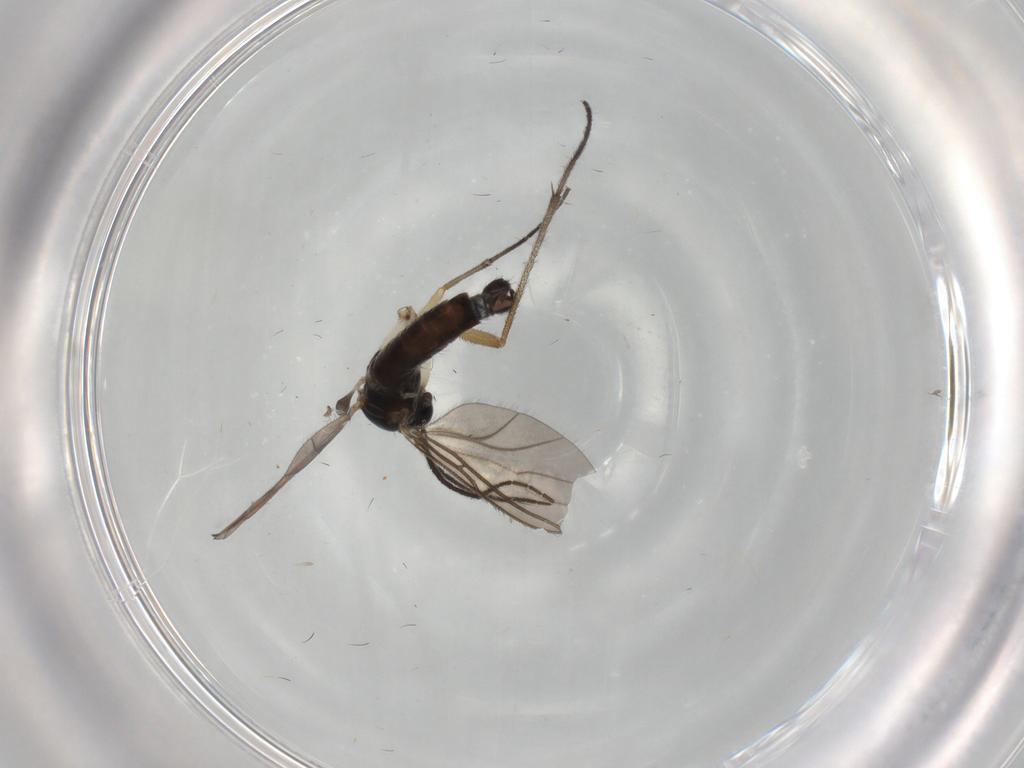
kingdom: Animalia
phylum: Arthropoda
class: Insecta
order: Diptera
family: Sciaridae
